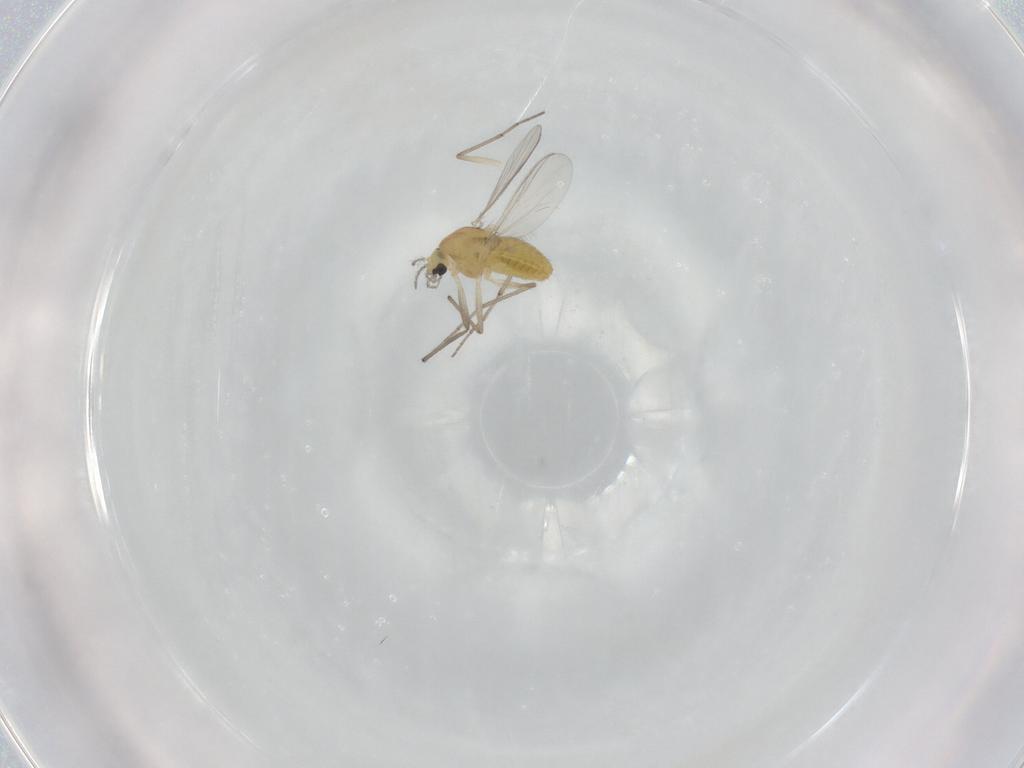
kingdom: Animalia
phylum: Arthropoda
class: Insecta
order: Diptera
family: Chironomidae
